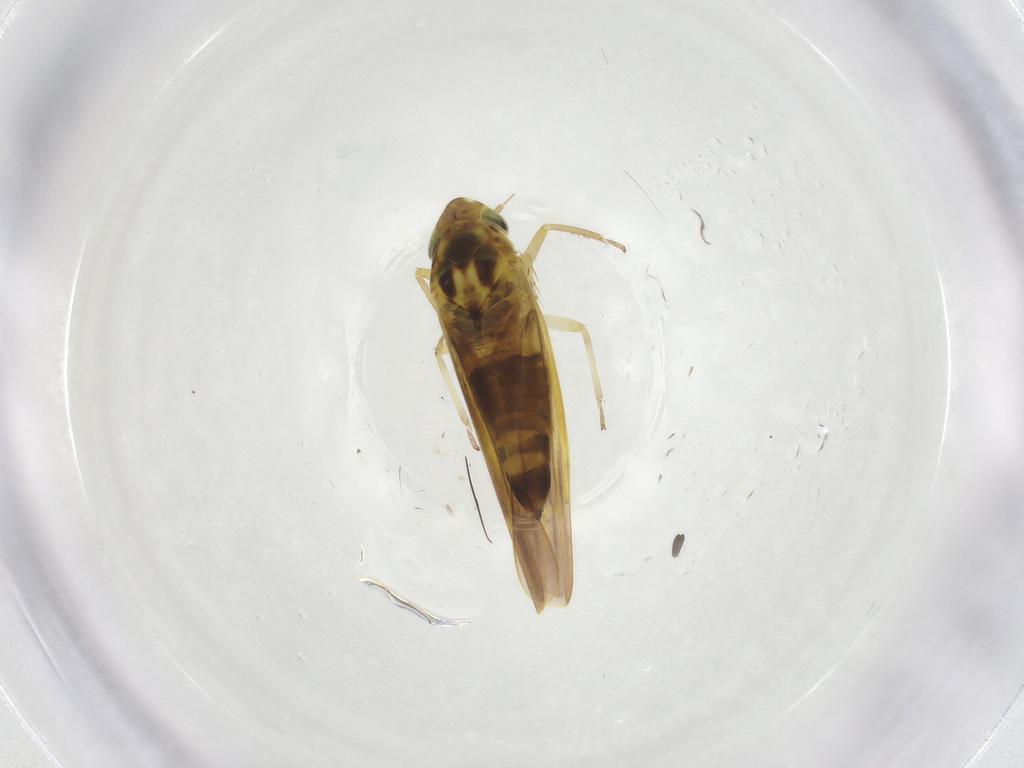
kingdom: Animalia
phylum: Arthropoda
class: Insecta
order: Hemiptera
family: Cicadellidae
